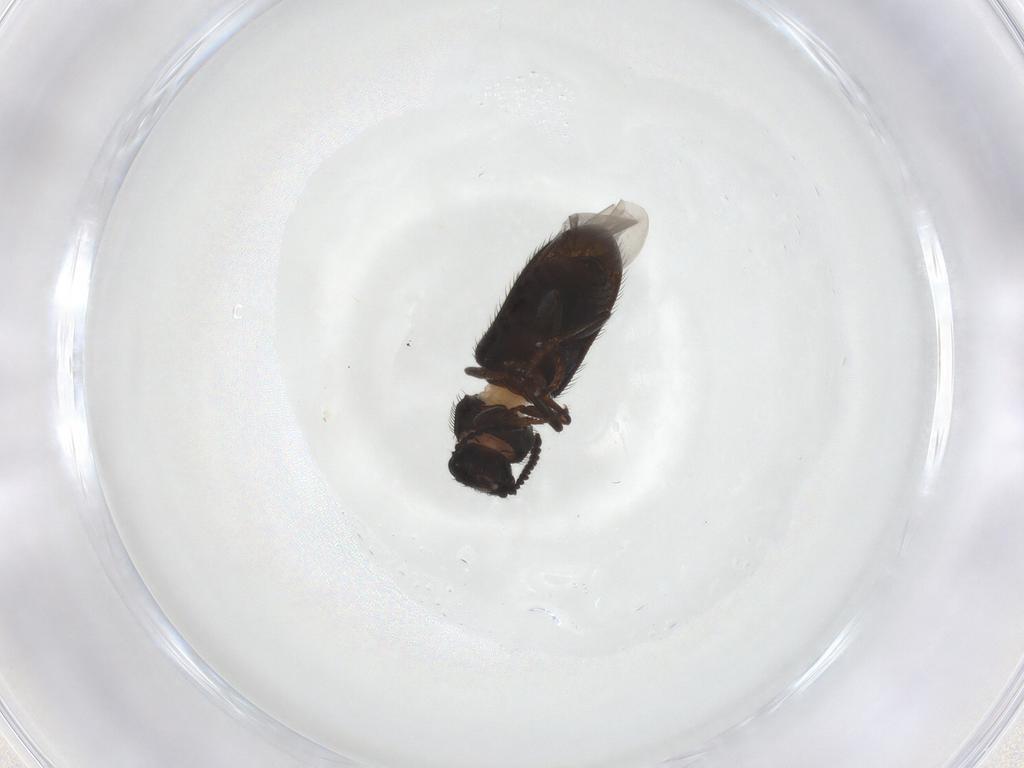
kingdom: Animalia
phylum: Arthropoda
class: Insecta
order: Coleoptera
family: Melyridae
